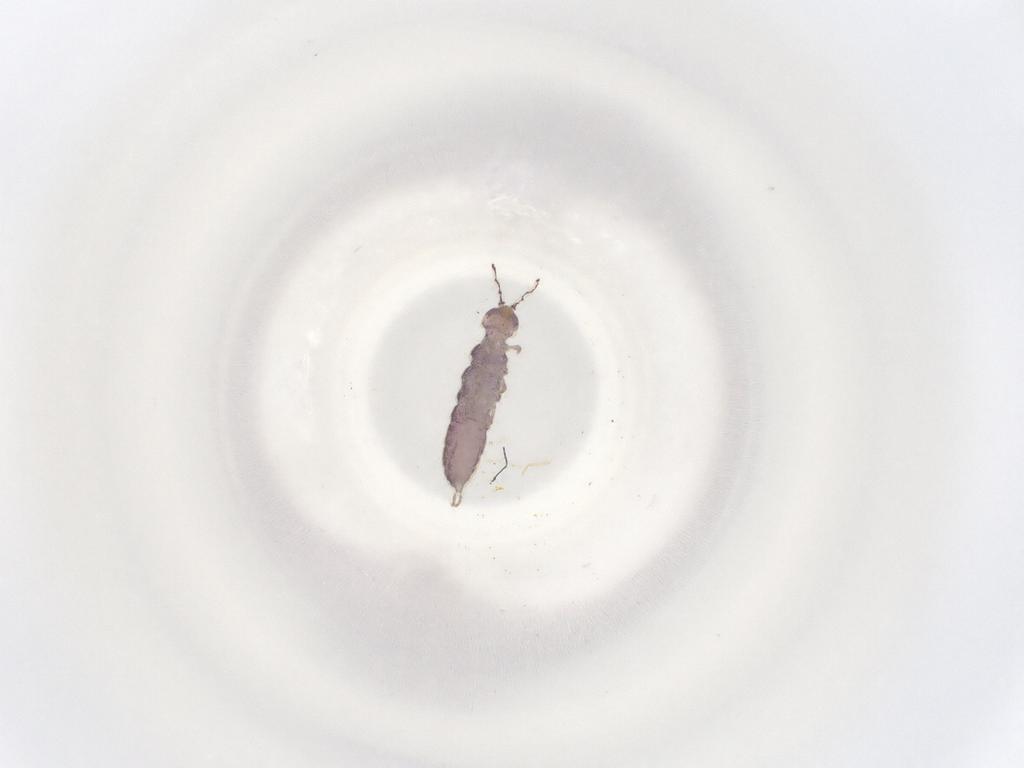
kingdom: Animalia
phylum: Arthropoda
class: Collembola
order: Entomobryomorpha
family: Isotomidae
